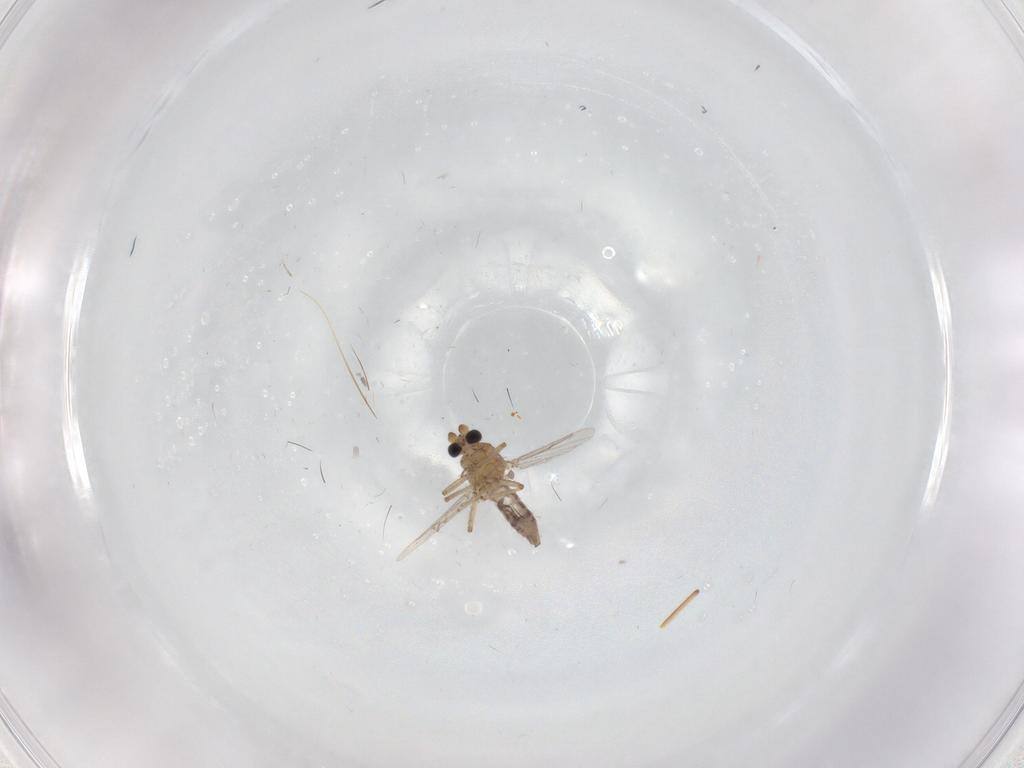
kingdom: Animalia
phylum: Arthropoda
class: Insecta
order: Diptera
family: Ceratopogonidae
